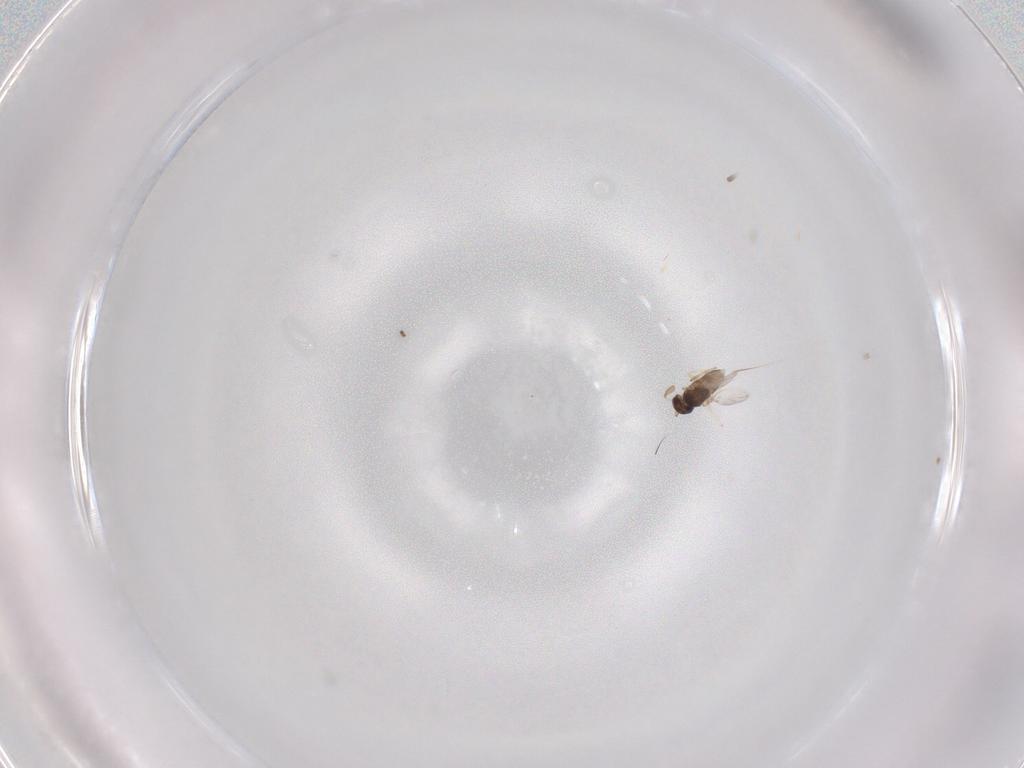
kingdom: Animalia
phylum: Arthropoda
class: Insecta
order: Hymenoptera
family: Encyrtidae
